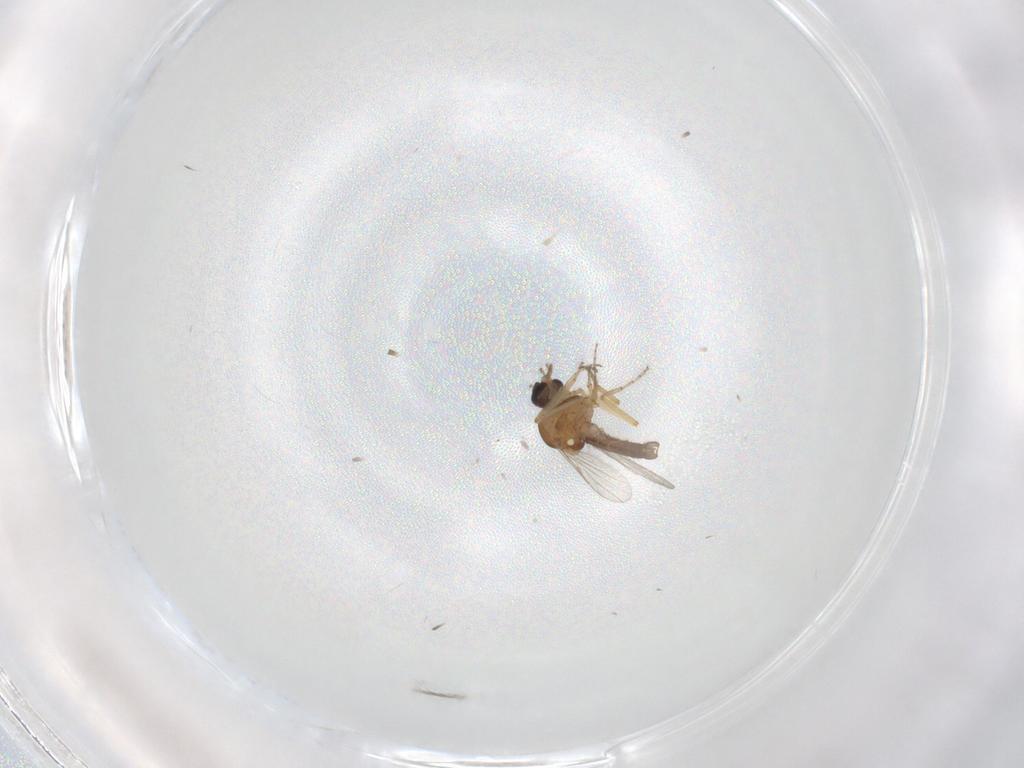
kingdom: Animalia
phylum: Arthropoda
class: Insecta
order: Diptera
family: Ceratopogonidae
